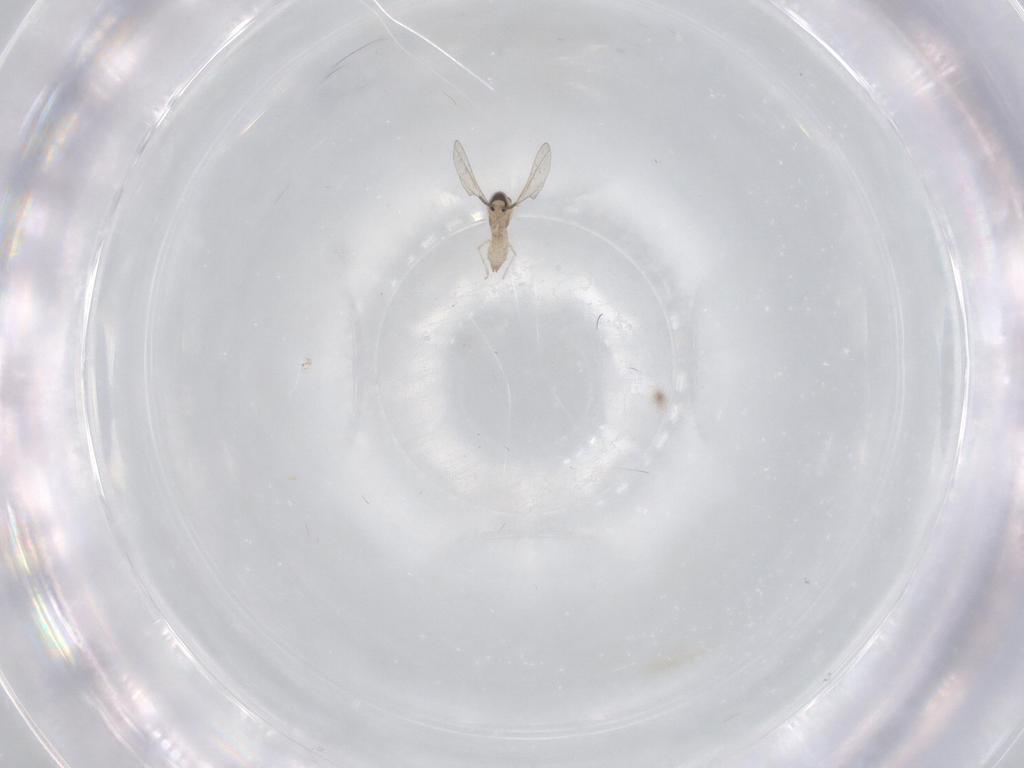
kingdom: Animalia
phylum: Arthropoda
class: Insecta
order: Diptera
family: Cecidomyiidae
